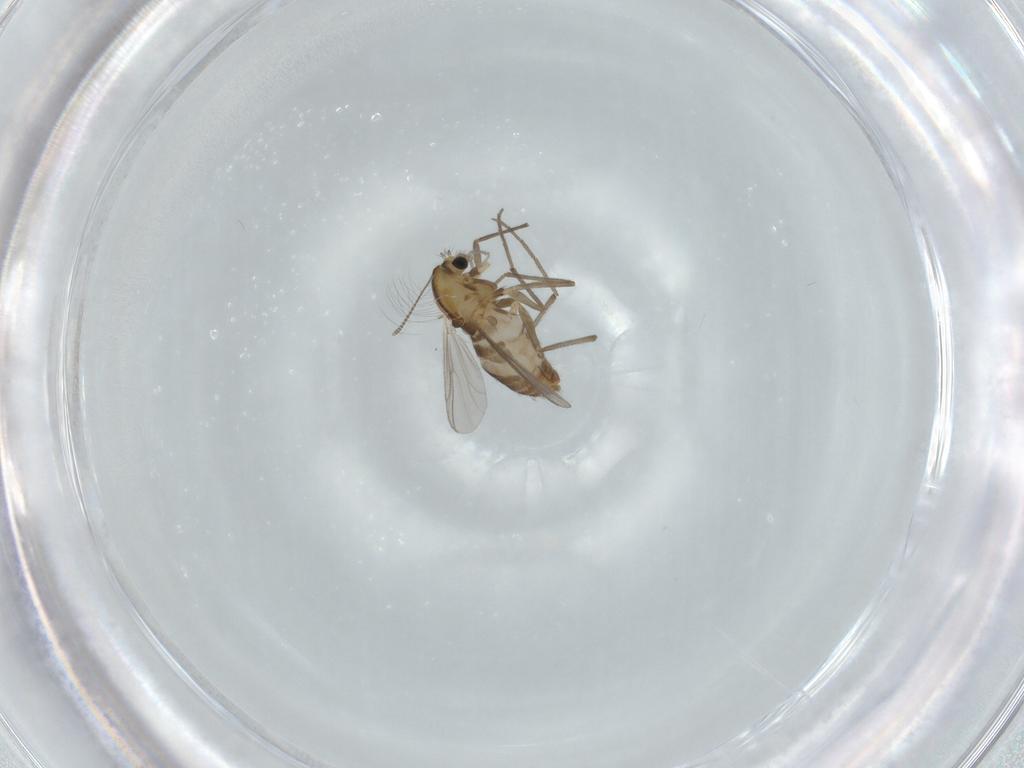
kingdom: Animalia
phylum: Arthropoda
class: Insecta
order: Diptera
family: Chironomidae
